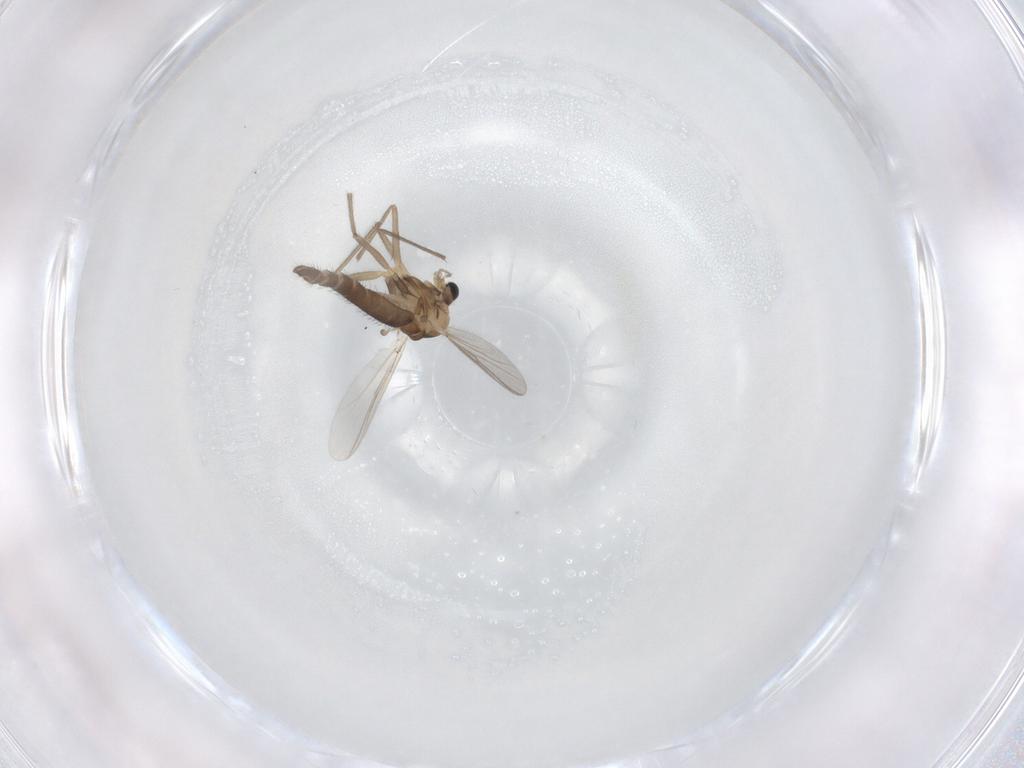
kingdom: Animalia
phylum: Arthropoda
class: Insecta
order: Diptera
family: Chironomidae
